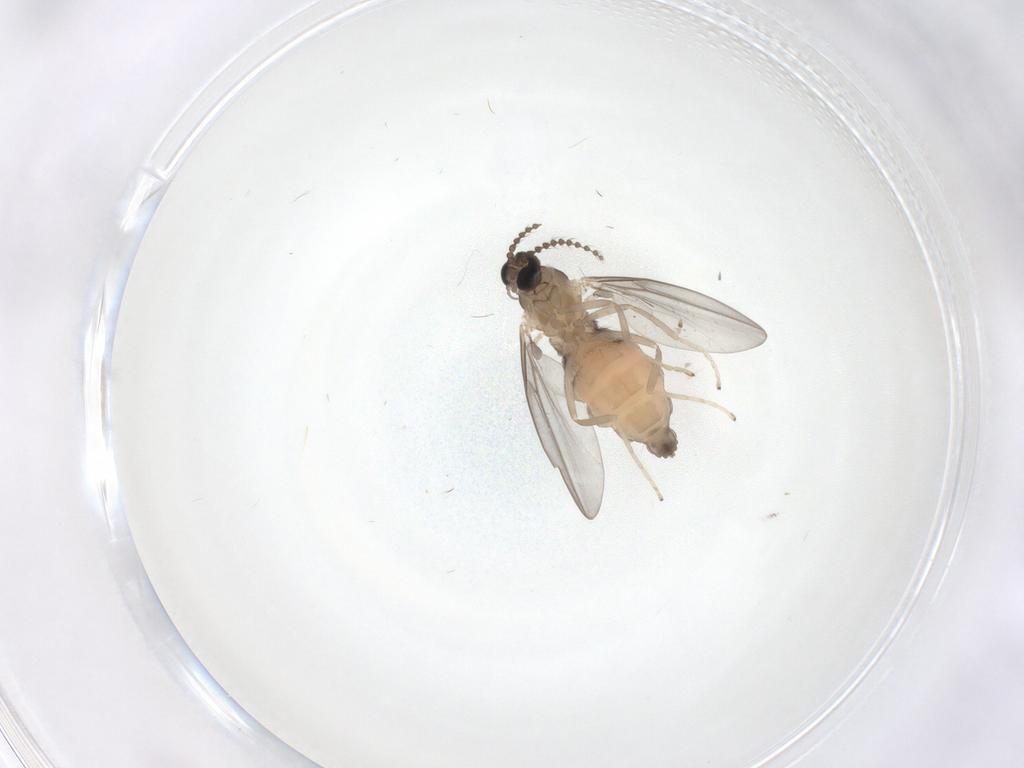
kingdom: Animalia
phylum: Arthropoda
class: Insecta
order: Diptera
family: Cecidomyiidae
